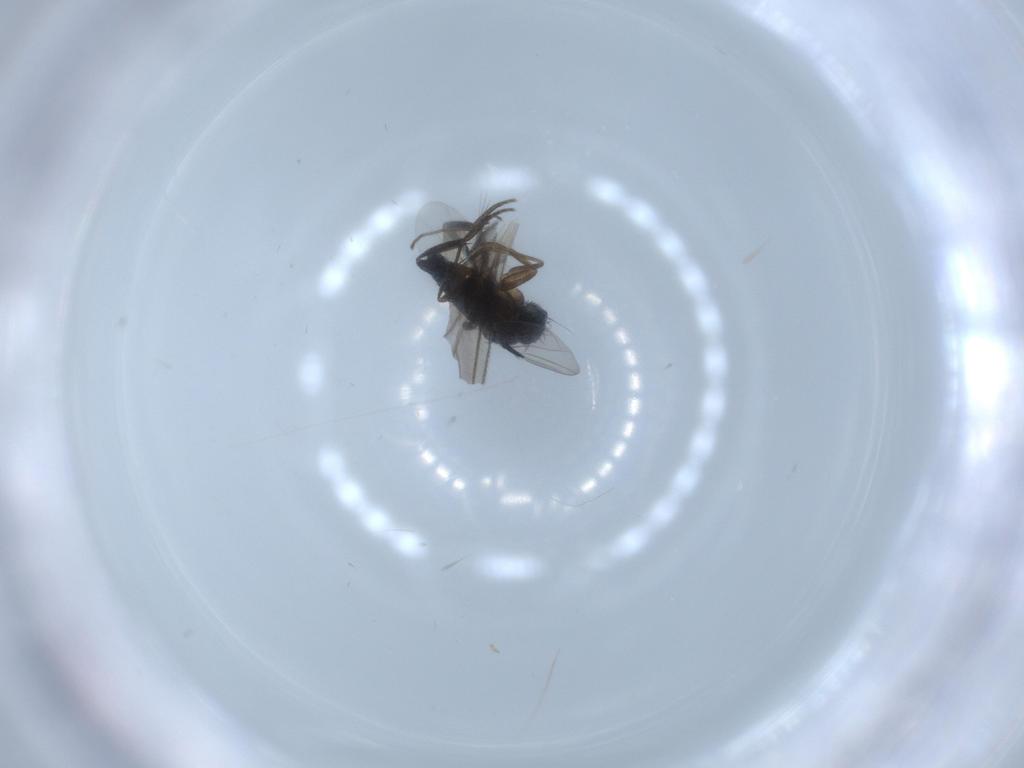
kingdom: Animalia
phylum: Arthropoda
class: Insecta
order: Diptera
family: Phoridae
